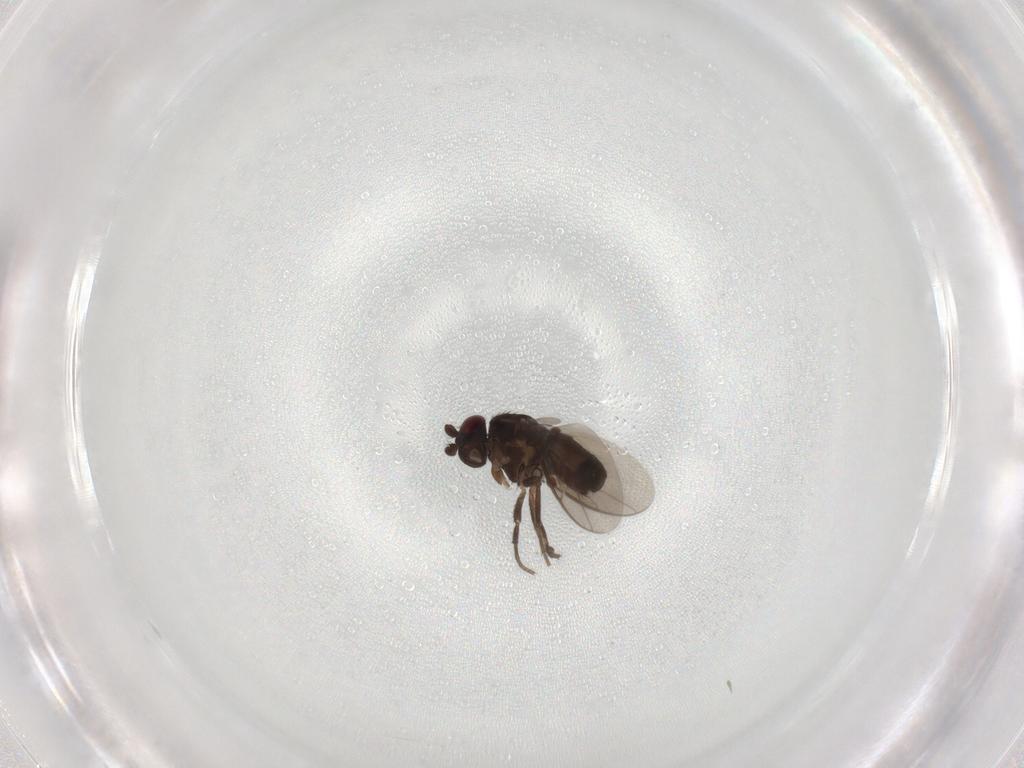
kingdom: Animalia
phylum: Arthropoda
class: Insecta
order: Diptera
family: Sphaeroceridae
